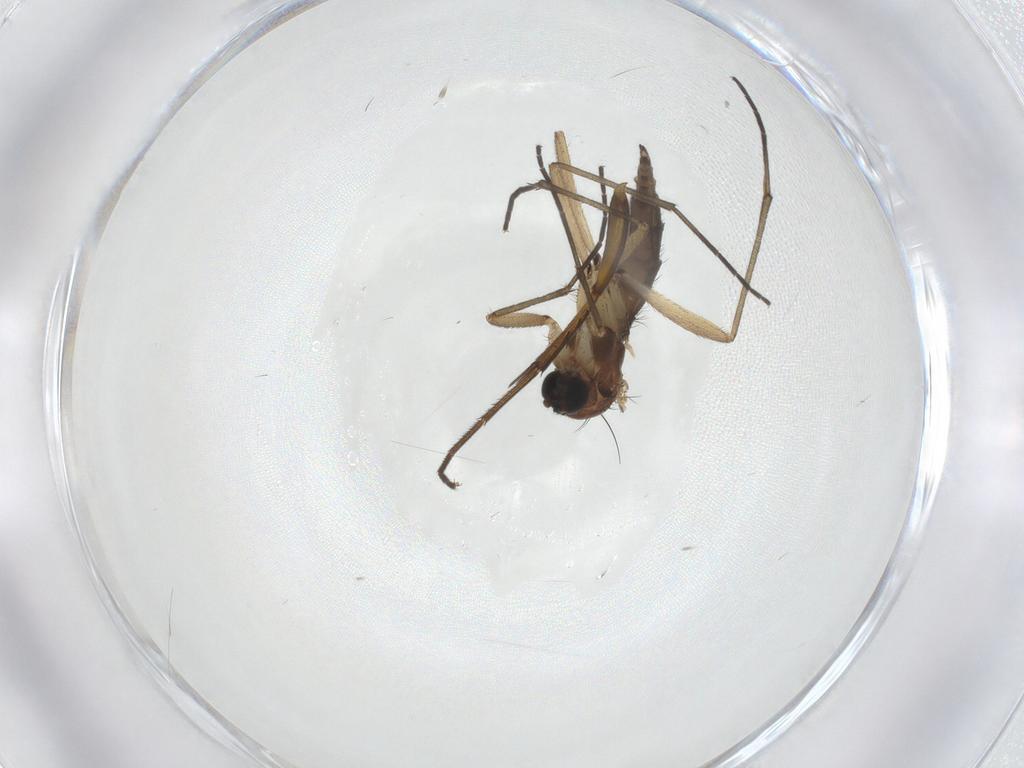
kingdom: Animalia
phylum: Arthropoda
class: Insecta
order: Diptera
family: Sciaridae
